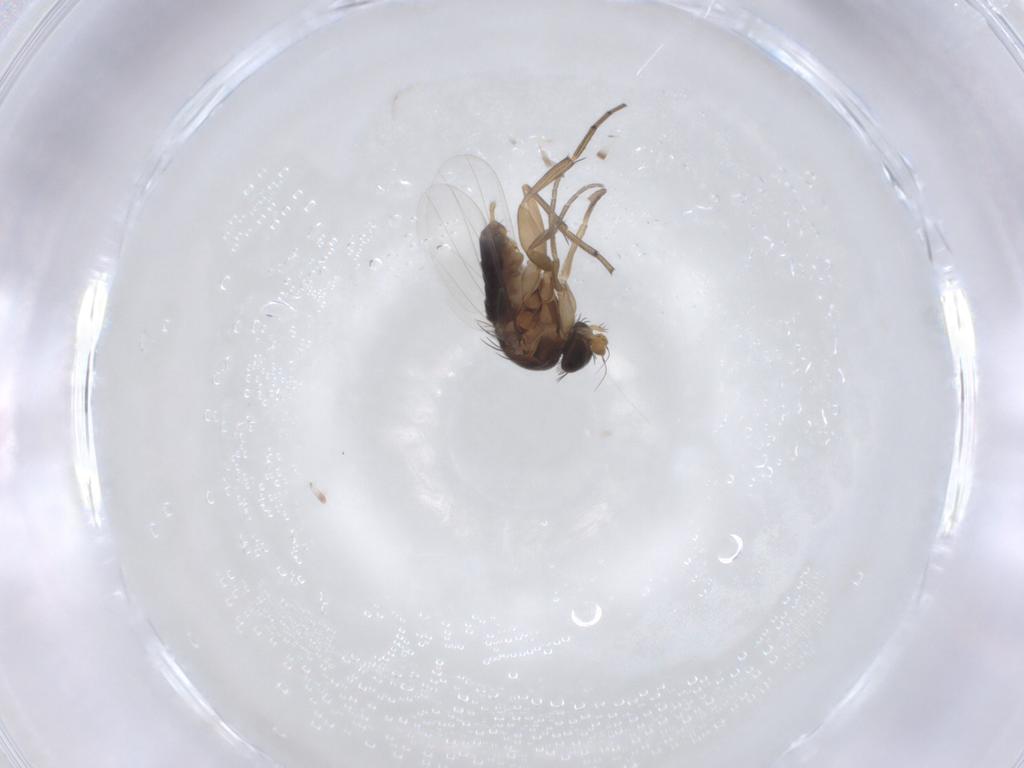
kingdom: Animalia
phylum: Arthropoda
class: Insecta
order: Diptera
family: Phoridae
